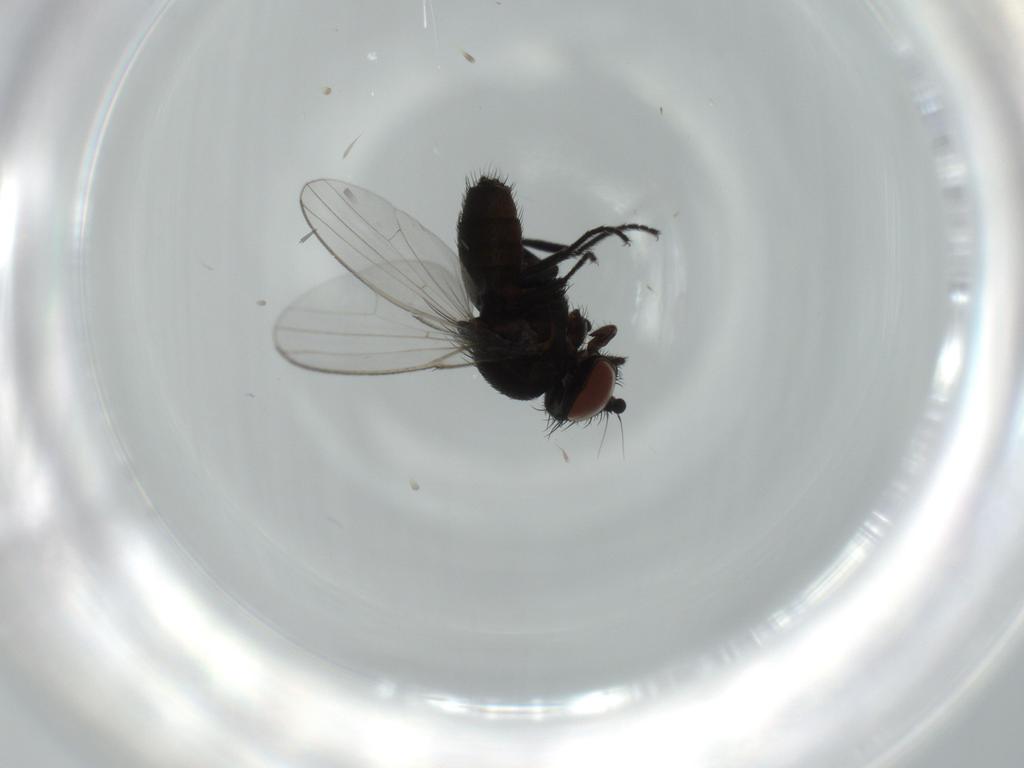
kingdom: Animalia
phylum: Arthropoda
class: Insecta
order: Diptera
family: Milichiidae
